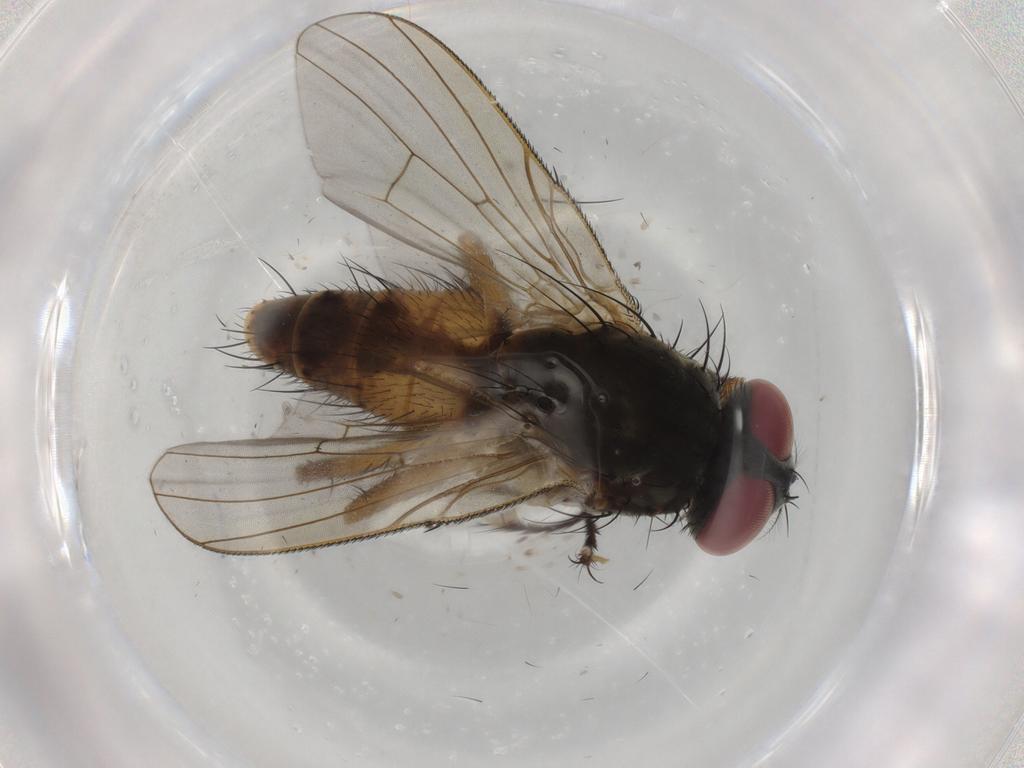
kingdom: Animalia
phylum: Arthropoda
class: Insecta
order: Diptera
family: Muscidae
